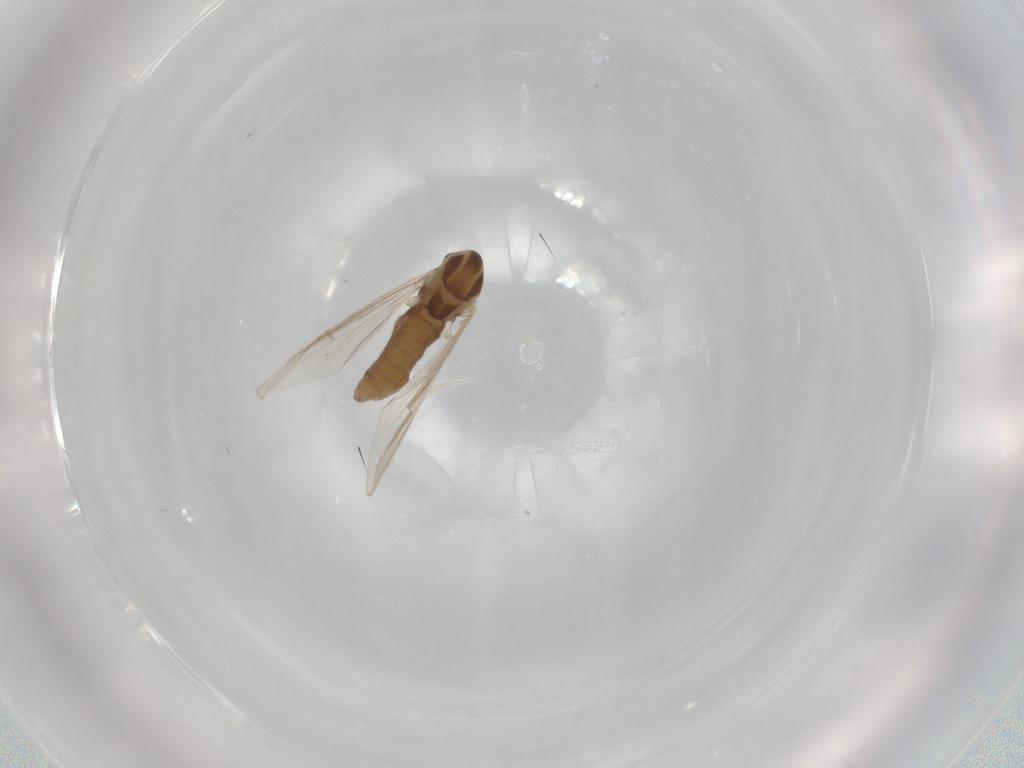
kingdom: Animalia
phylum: Arthropoda
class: Insecta
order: Diptera
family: Chironomidae
